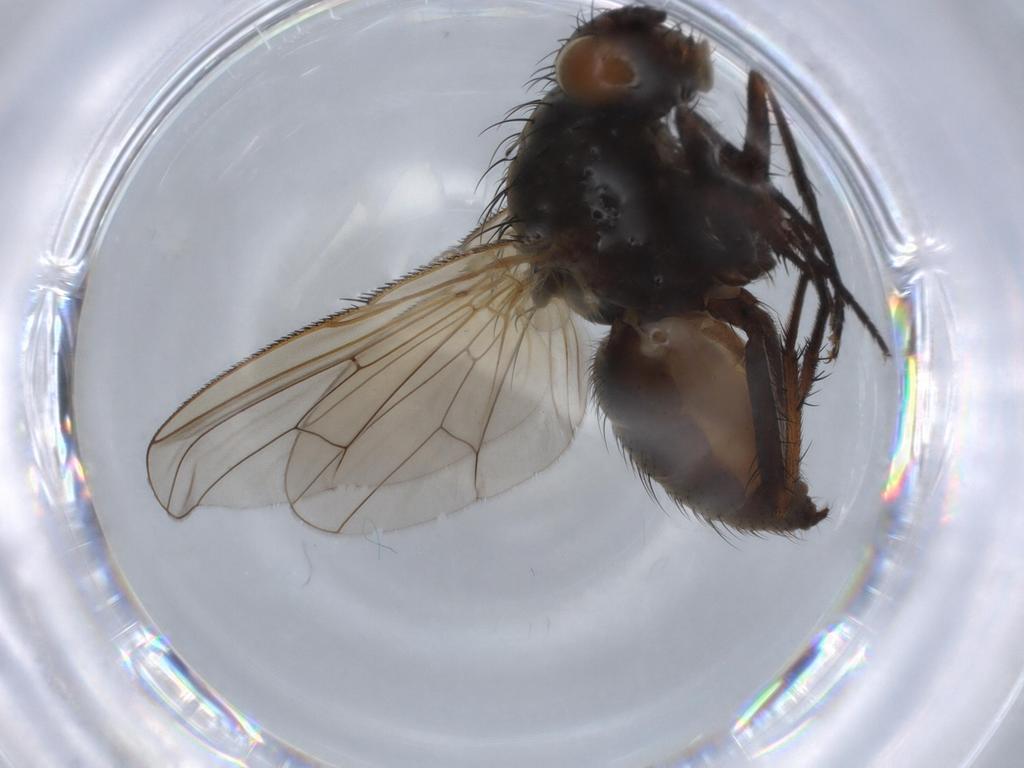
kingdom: Animalia
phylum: Arthropoda
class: Insecta
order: Diptera
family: Anthomyiidae
